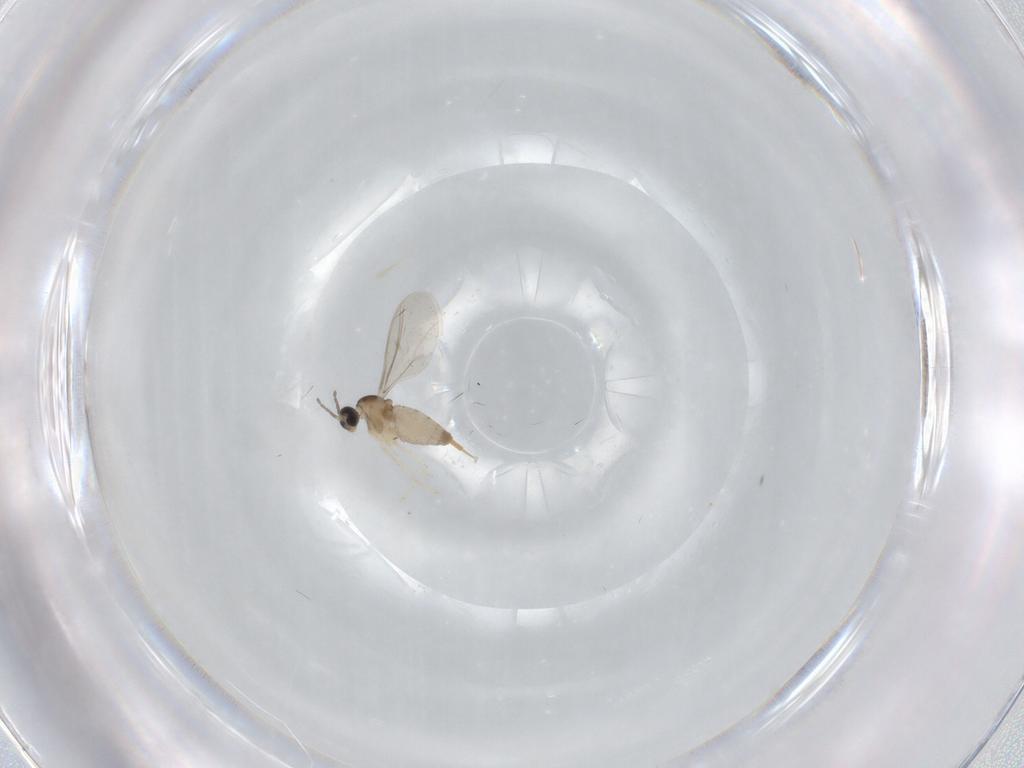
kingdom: Animalia
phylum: Arthropoda
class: Insecta
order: Diptera
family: Cecidomyiidae
